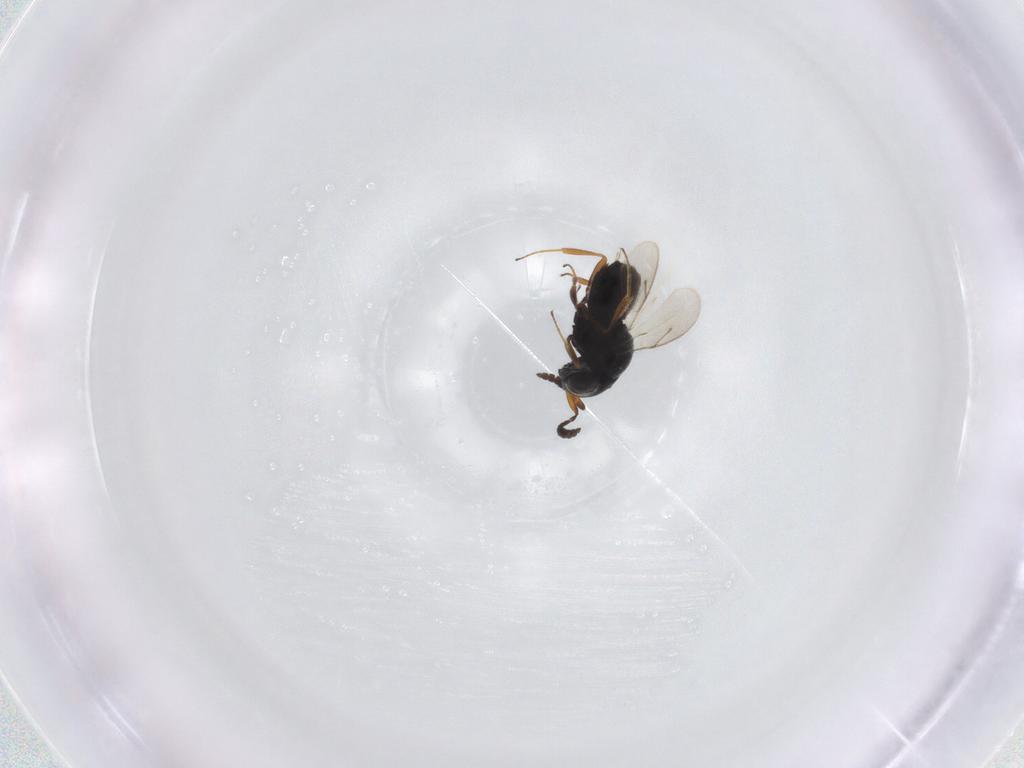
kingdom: Animalia
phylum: Arthropoda
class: Insecta
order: Hymenoptera
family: Scelionidae
